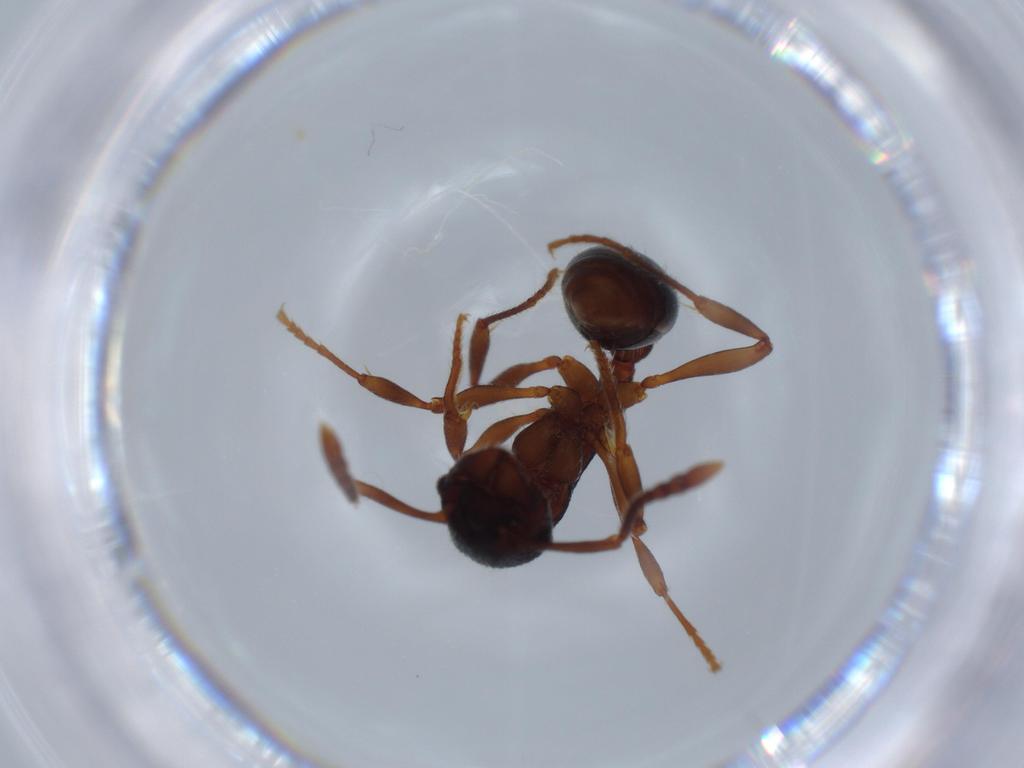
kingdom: Animalia
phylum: Arthropoda
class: Insecta
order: Hymenoptera
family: Formicidae
